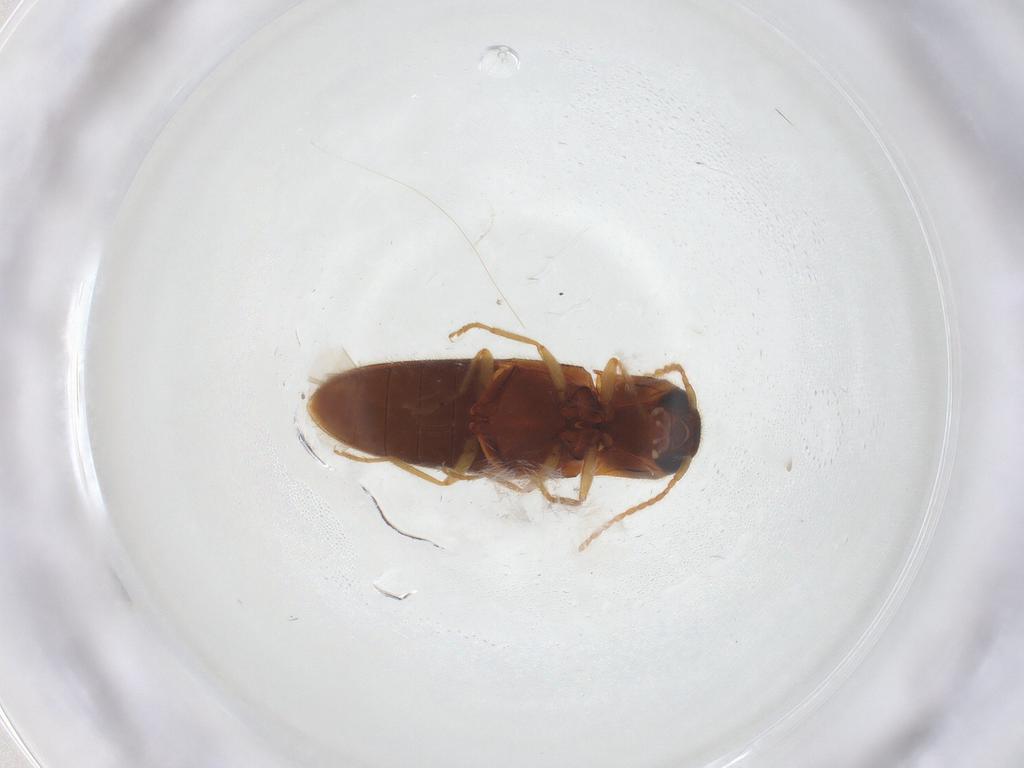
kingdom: Animalia
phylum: Arthropoda
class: Insecta
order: Coleoptera
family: Elateridae
